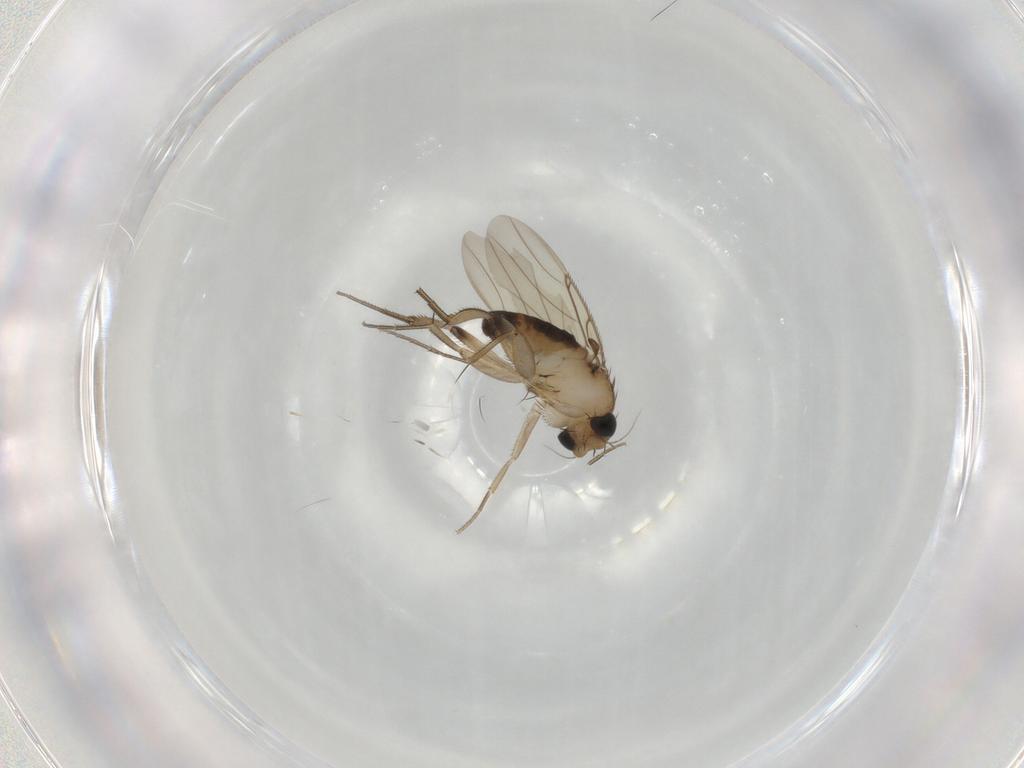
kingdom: Animalia
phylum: Arthropoda
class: Insecta
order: Diptera
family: Phoridae
